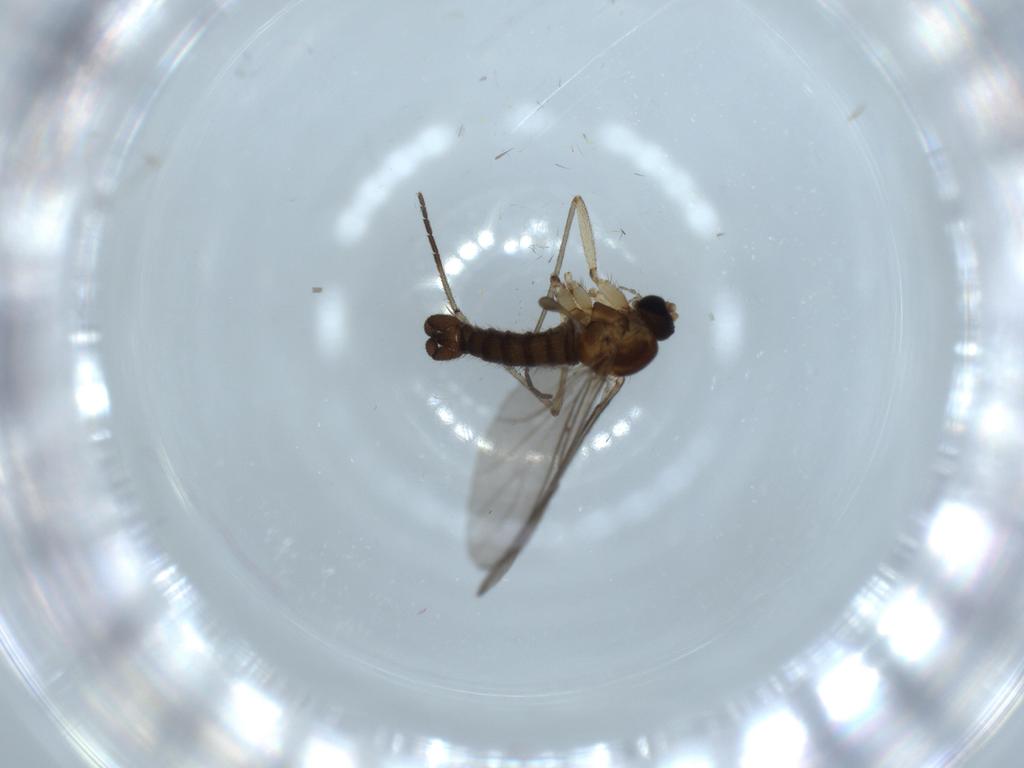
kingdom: Animalia
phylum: Arthropoda
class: Insecta
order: Diptera
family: Sciaridae
